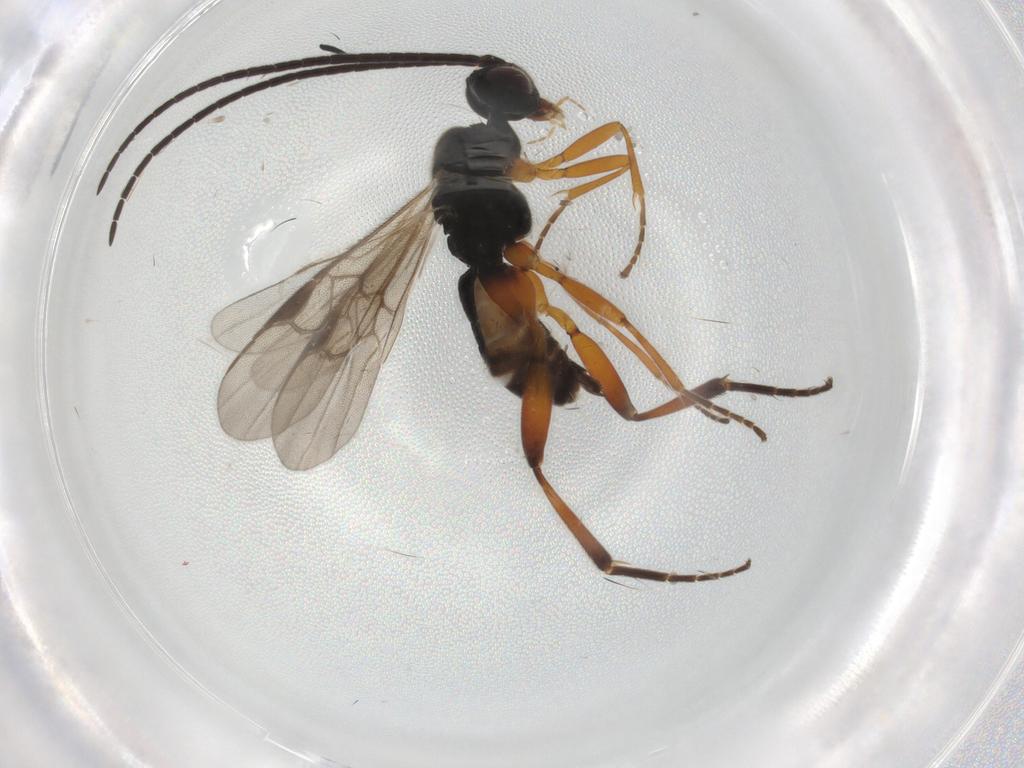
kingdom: Animalia
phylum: Arthropoda
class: Insecta
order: Hymenoptera
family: Braconidae
